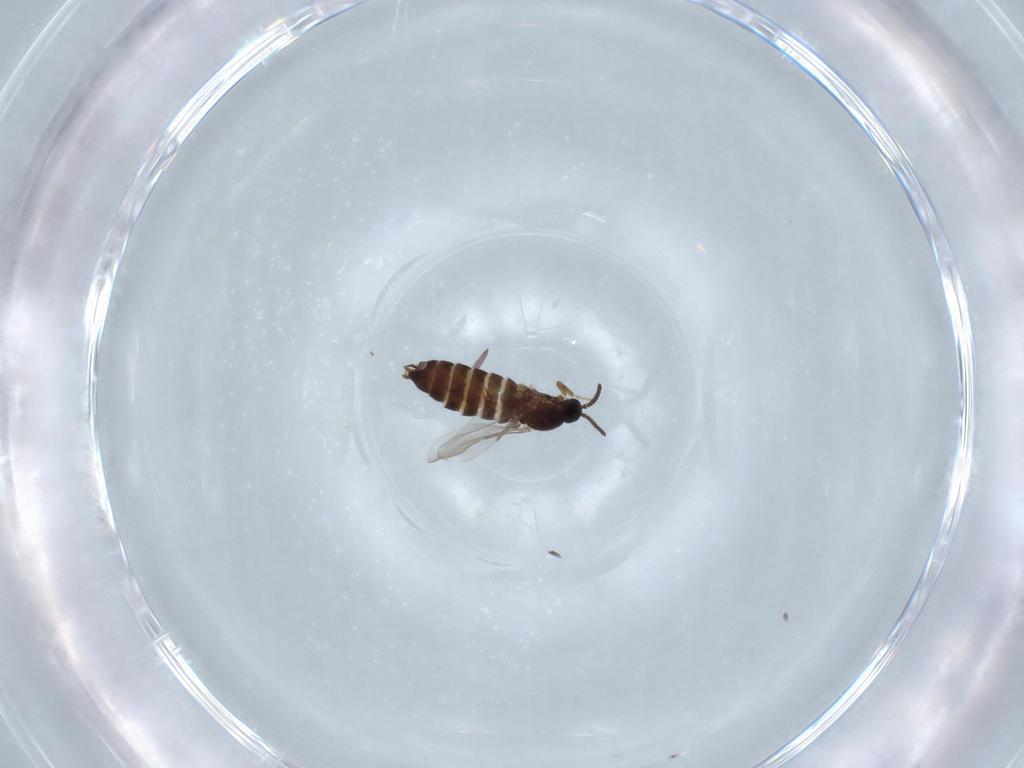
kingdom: Animalia
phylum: Arthropoda
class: Insecta
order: Diptera
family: Scatopsidae
